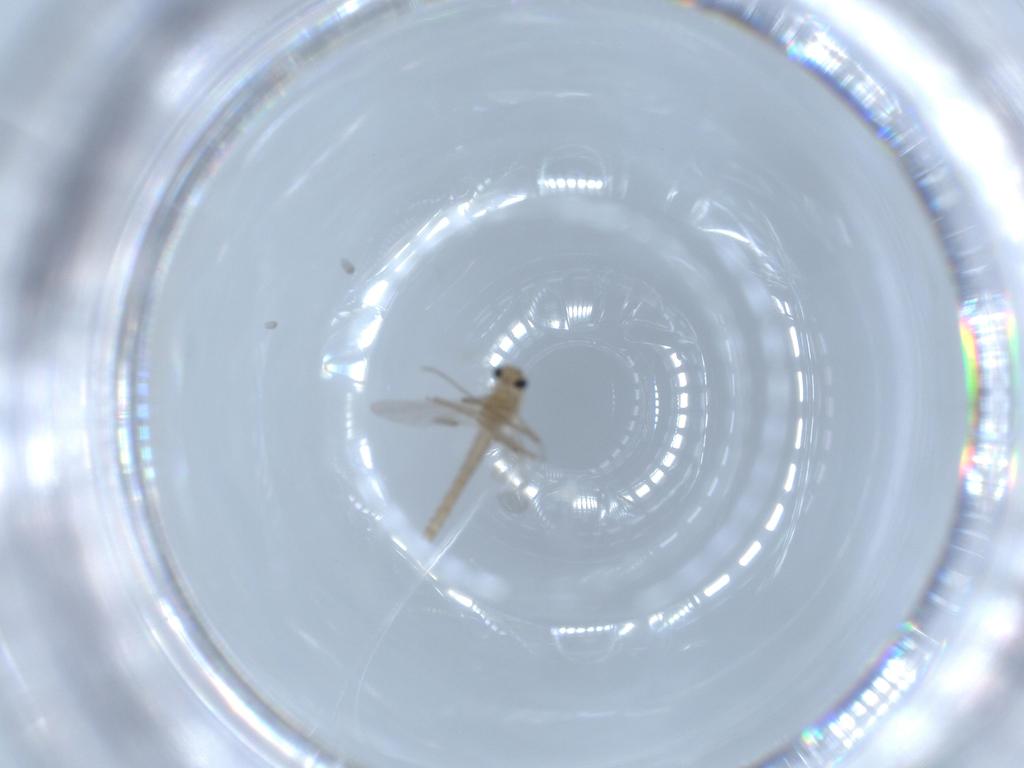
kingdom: Animalia
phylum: Arthropoda
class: Insecta
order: Diptera
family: Chironomidae
